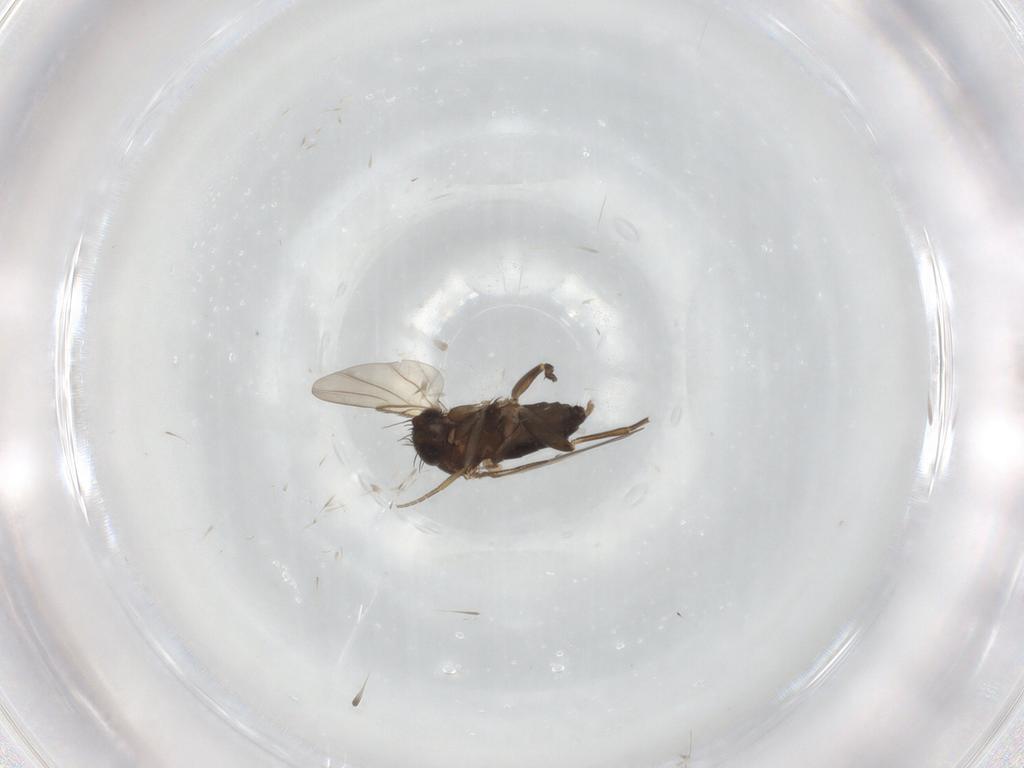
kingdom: Animalia
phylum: Arthropoda
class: Insecta
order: Diptera
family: Phoridae
